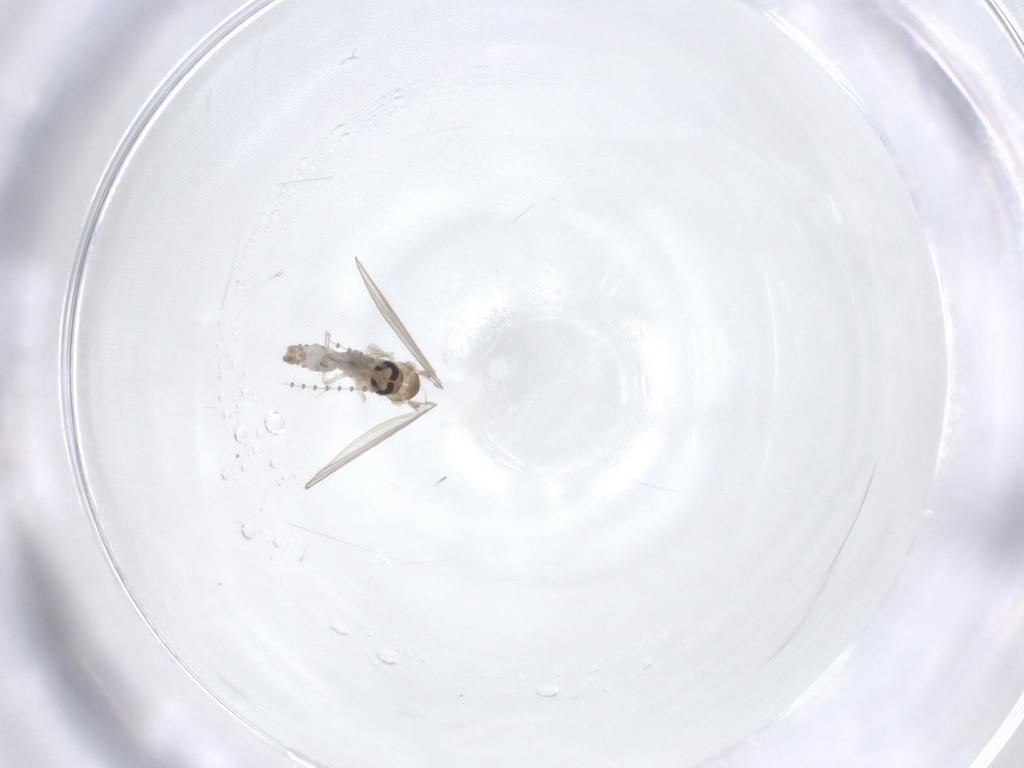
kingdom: Animalia
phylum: Arthropoda
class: Insecta
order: Diptera
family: Psychodidae
